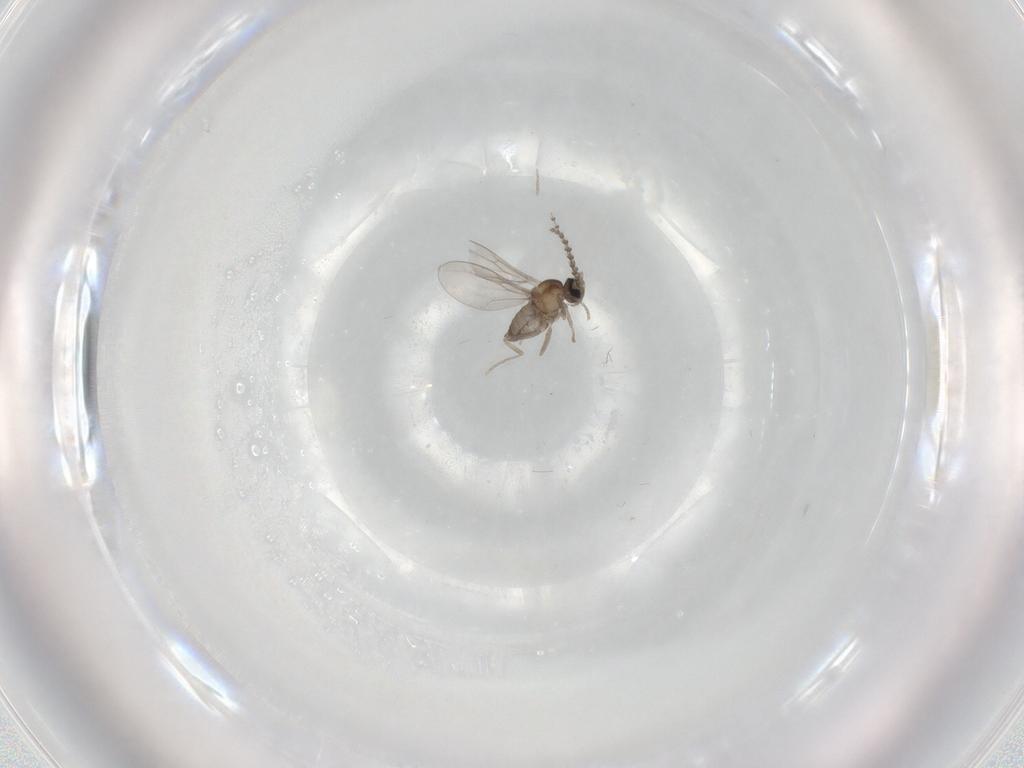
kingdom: Animalia
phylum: Arthropoda
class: Insecta
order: Diptera
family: Cecidomyiidae
